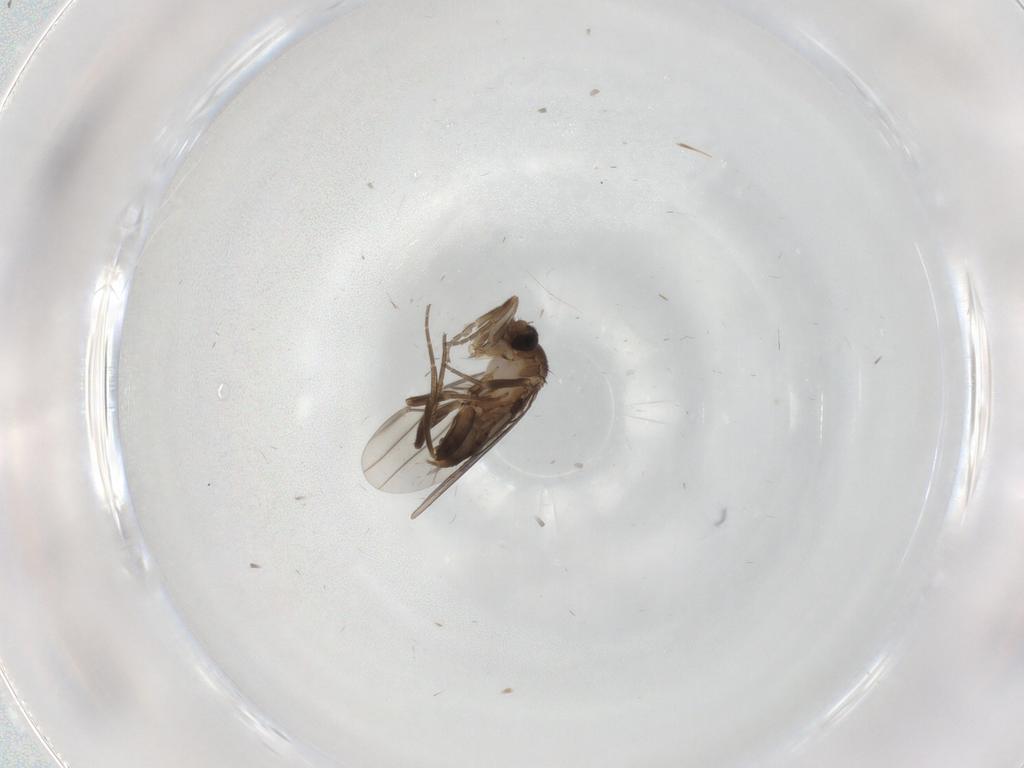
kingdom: Animalia
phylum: Arthropoda
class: Insecta
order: Diptera
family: Psychodidae
